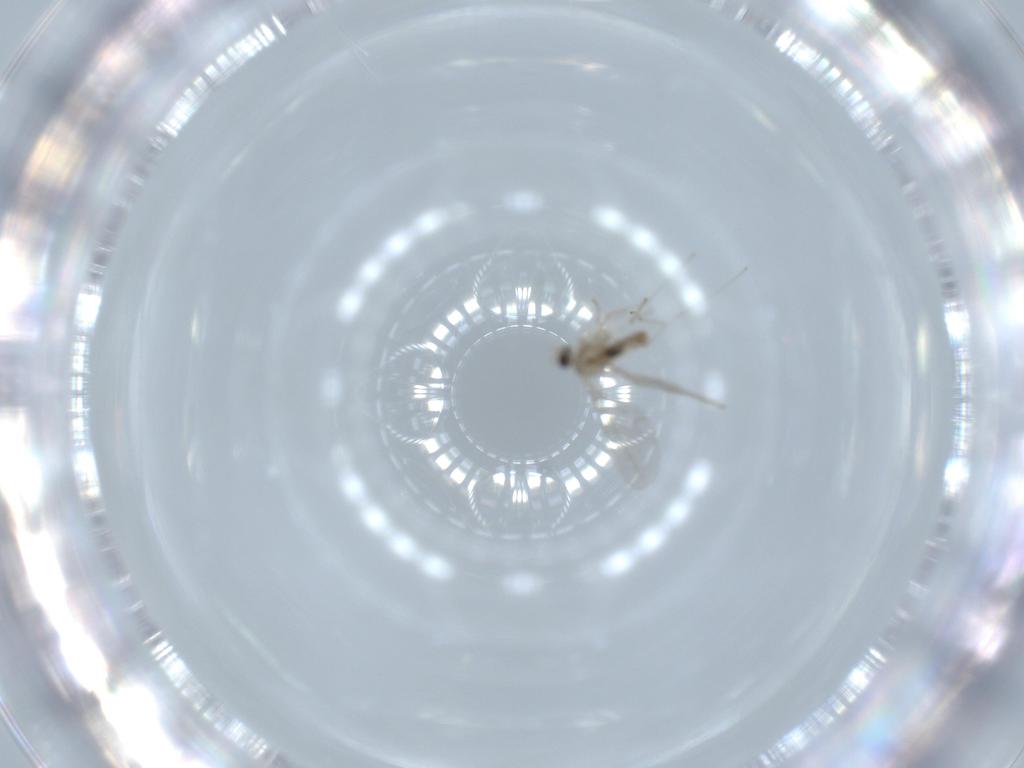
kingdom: Animalia
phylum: Arthropoda
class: Insecta
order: Diptera
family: Cecidomyiidae
